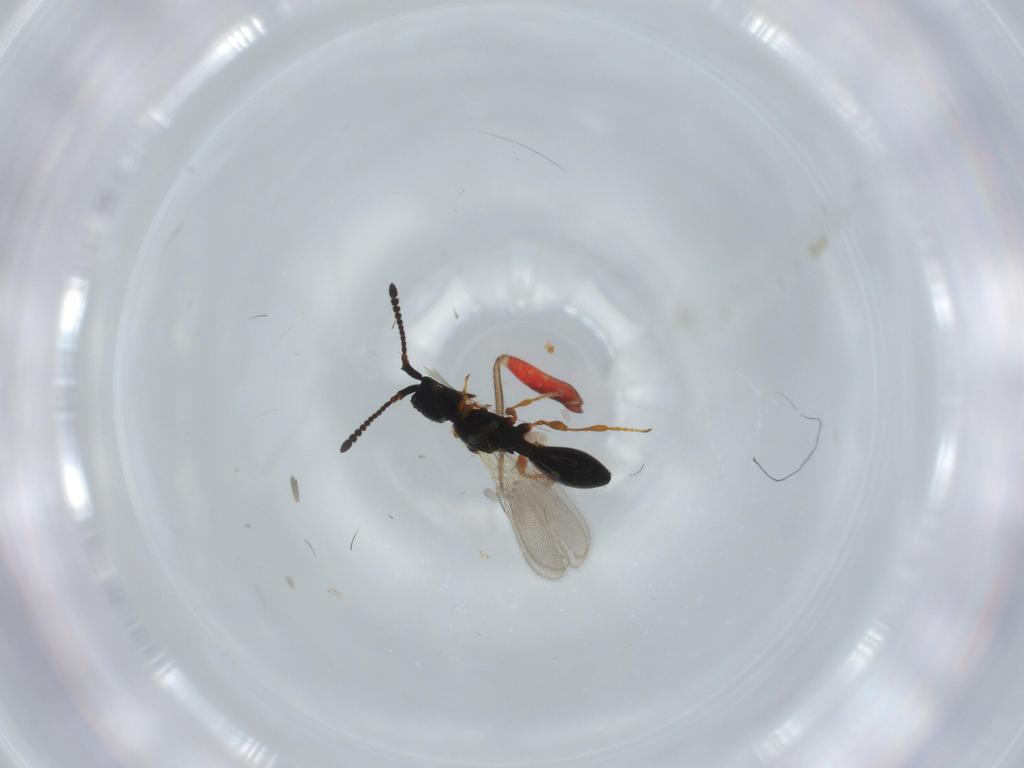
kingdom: Animalia
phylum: Arthropoda
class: Insecta
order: Hymenoptera
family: Diapriidae
